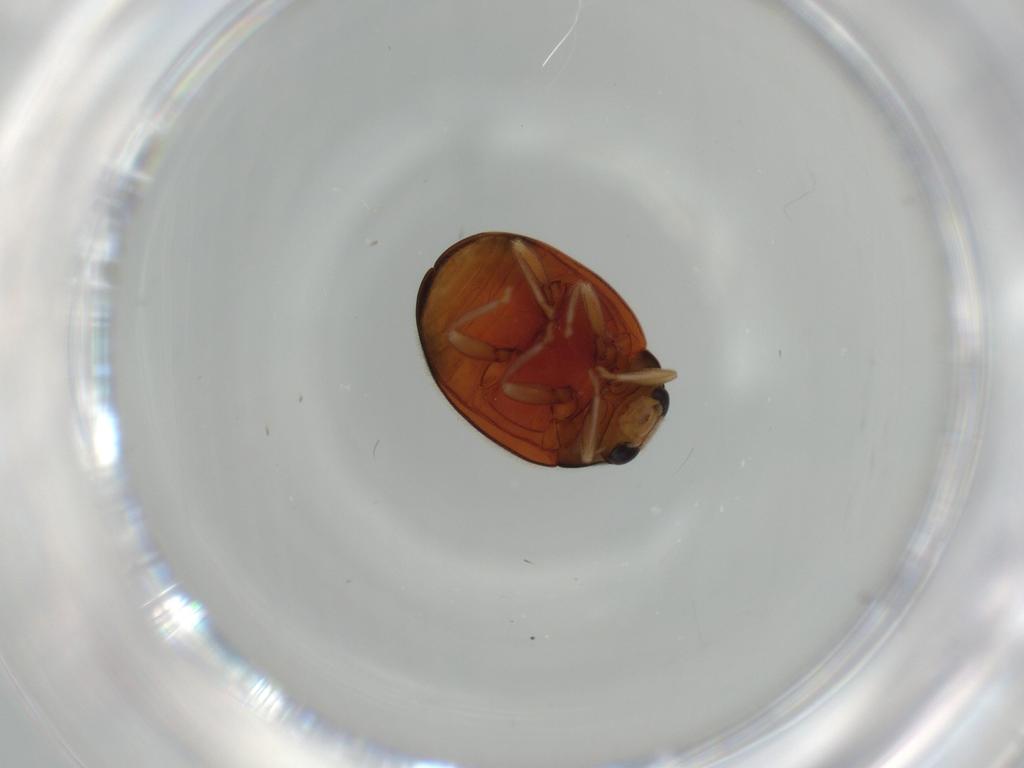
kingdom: Animalia
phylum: Arthropoda
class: Insecta
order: Coleoptera
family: Coccinellidae
